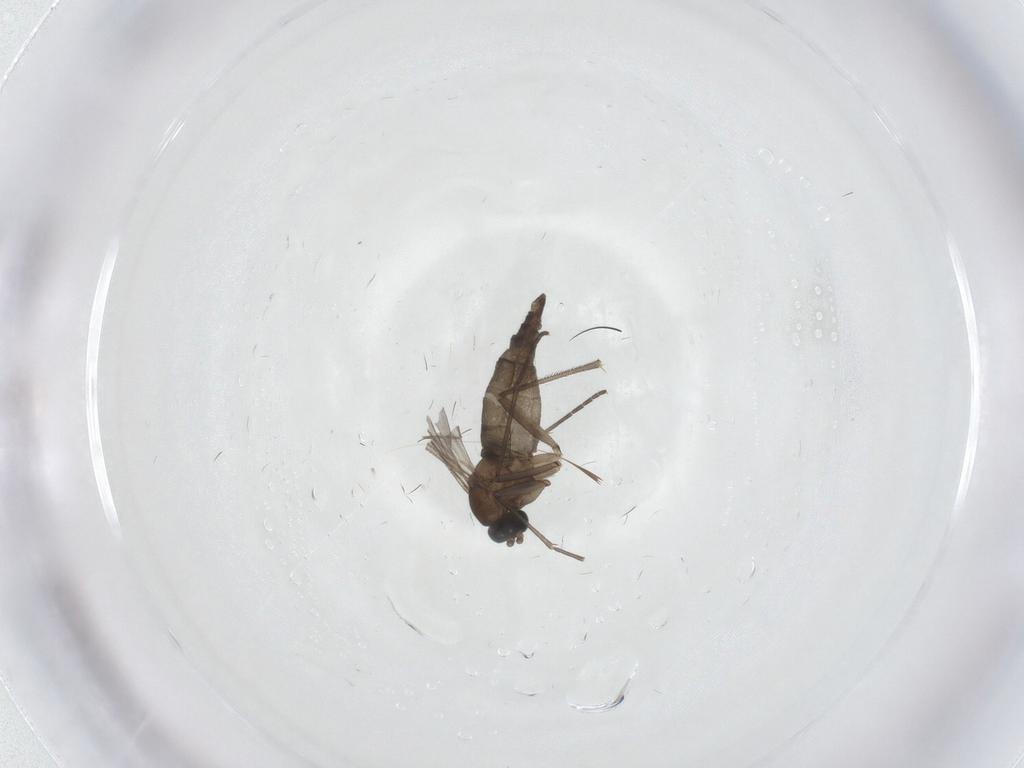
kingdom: Animalia
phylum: Arthropoda
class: Insecta
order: Diptera
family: Sciaridae
